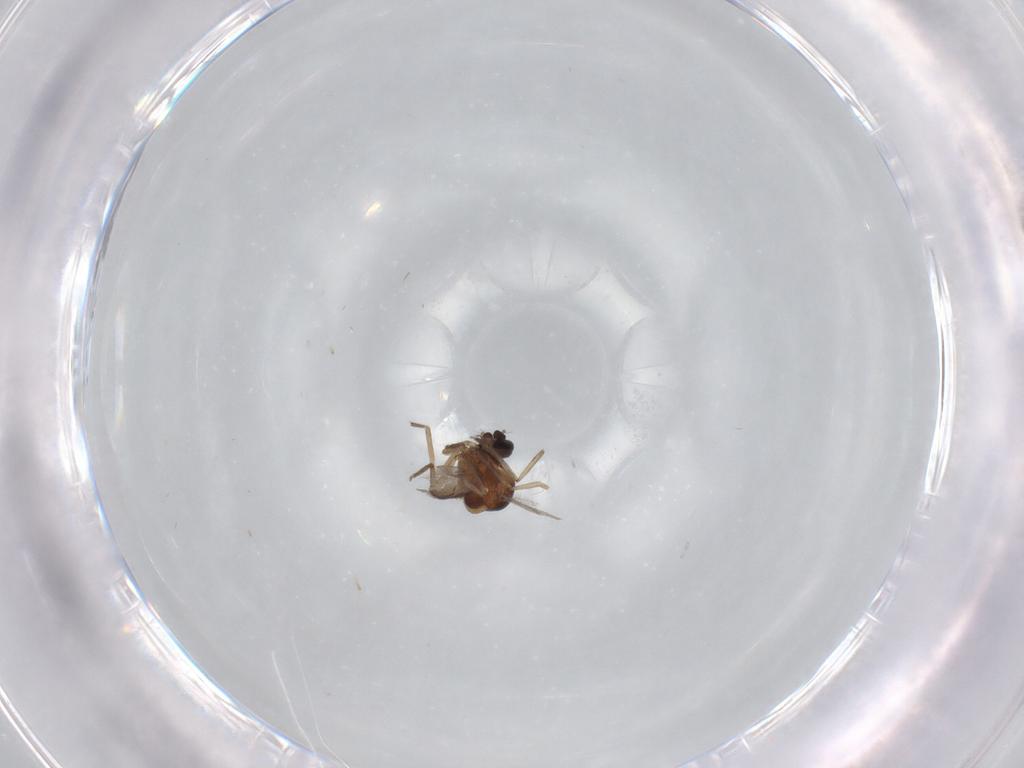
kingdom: Animalia
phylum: Arthropoda
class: Insecta
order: Diptera
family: Ceratopogonidae
